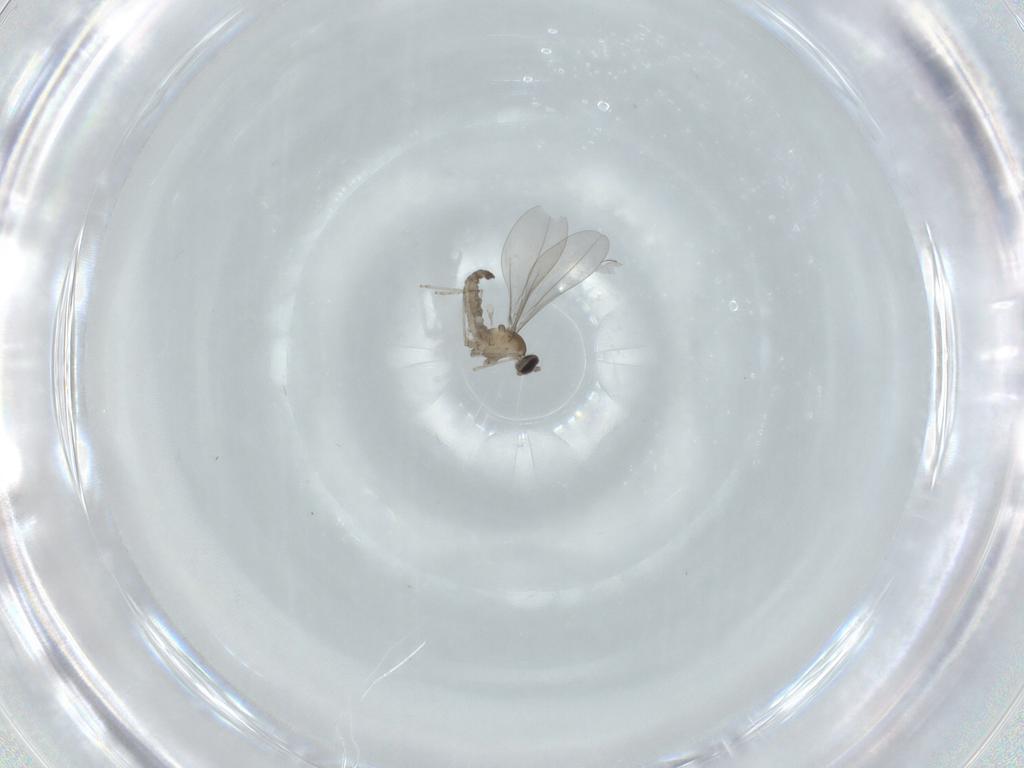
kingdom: Animalia
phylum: Arthropoda
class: Insecta
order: Diptera
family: Cecidomyiidae
